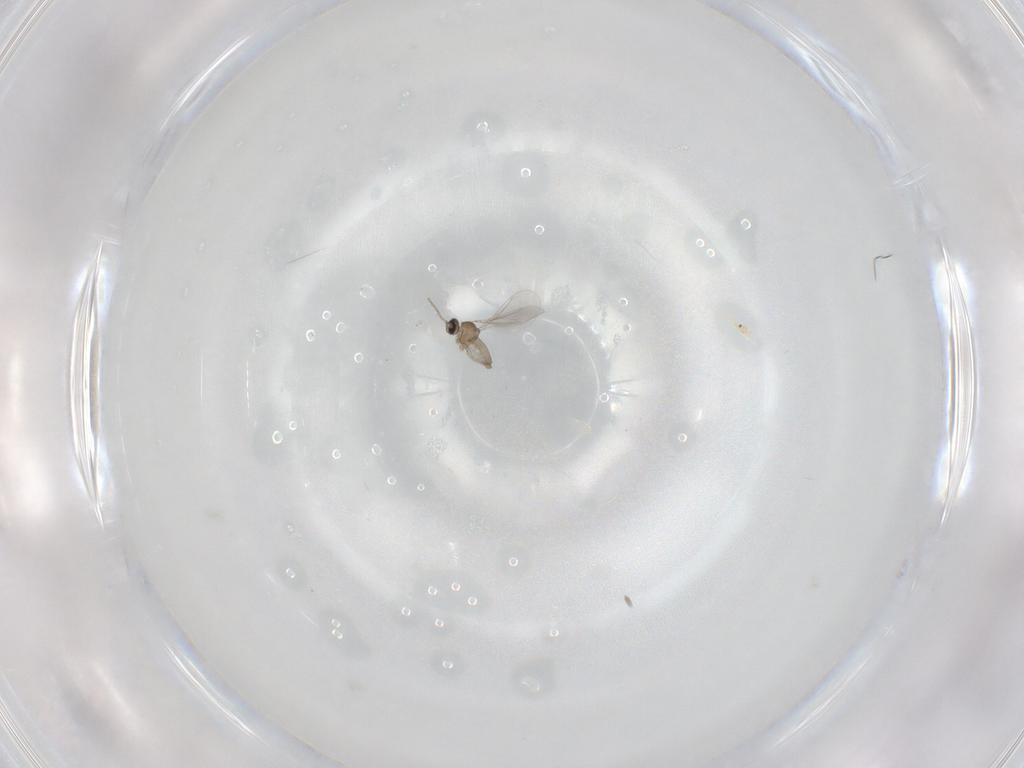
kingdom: Animalia
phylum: Arthropoda
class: Insecta
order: Diptera
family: Cecidomyiidae
